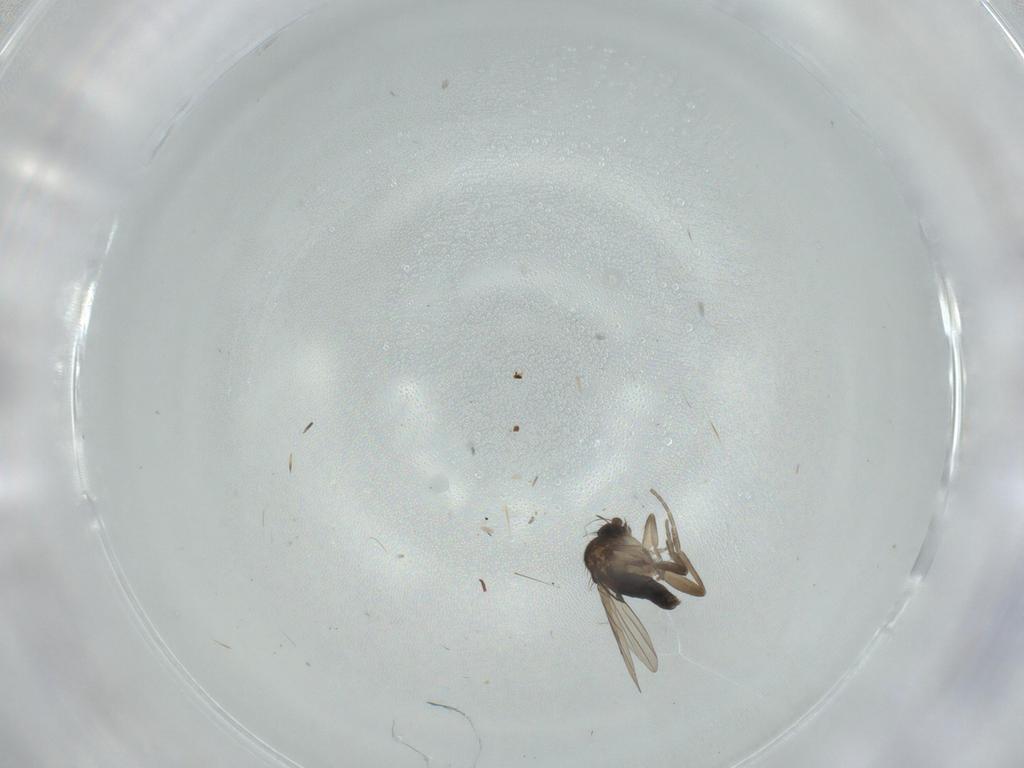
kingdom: Animalia
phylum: Arthropoda
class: Insecta
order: Diptera
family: Phoridae
